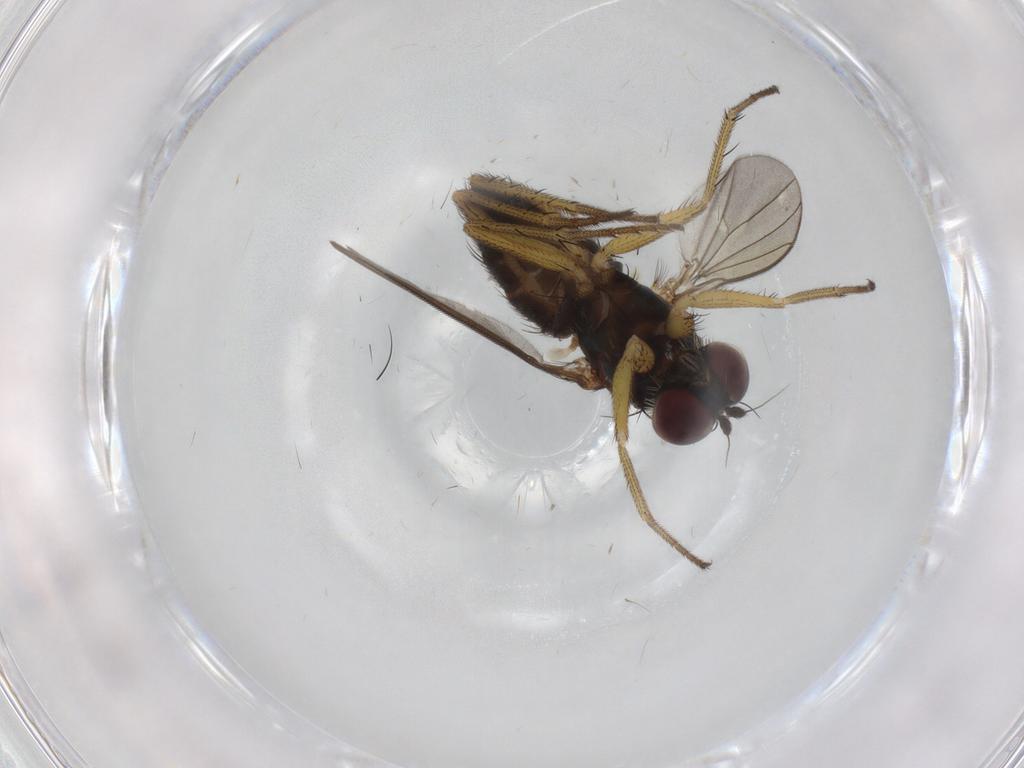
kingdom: Animalia
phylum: Arthropoda
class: Insecta
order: Diptera
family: Dolichopodidae
